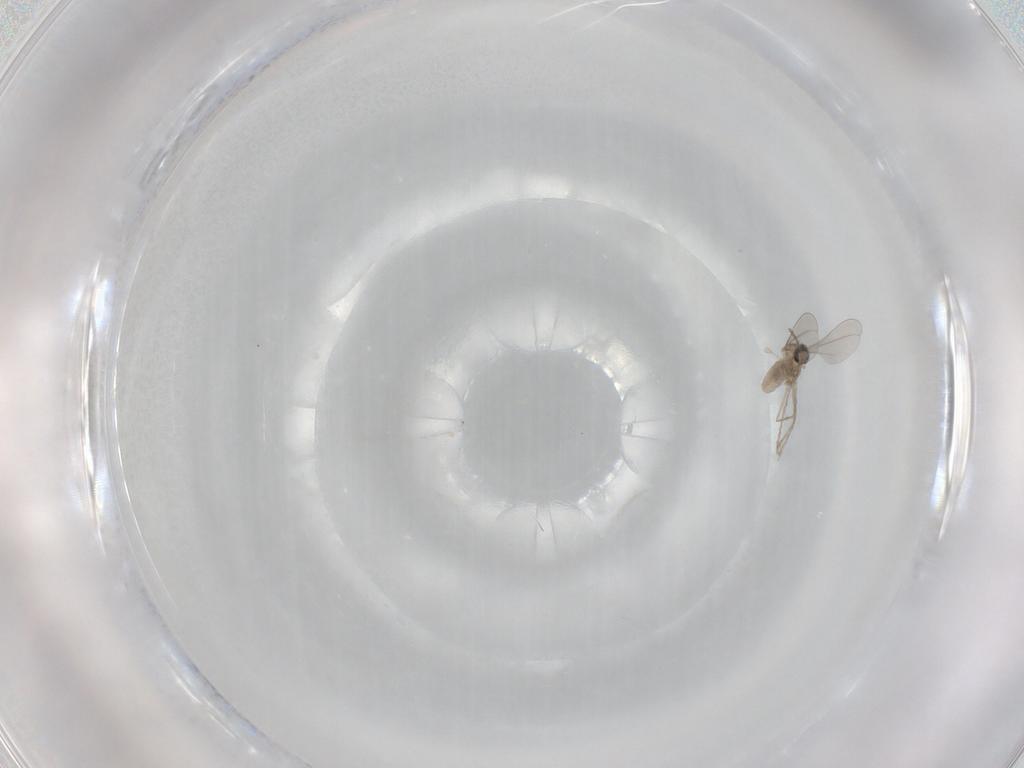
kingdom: Animalia
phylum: Arthropoda
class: Insecta
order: Diptera
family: Cecidomyiidae
